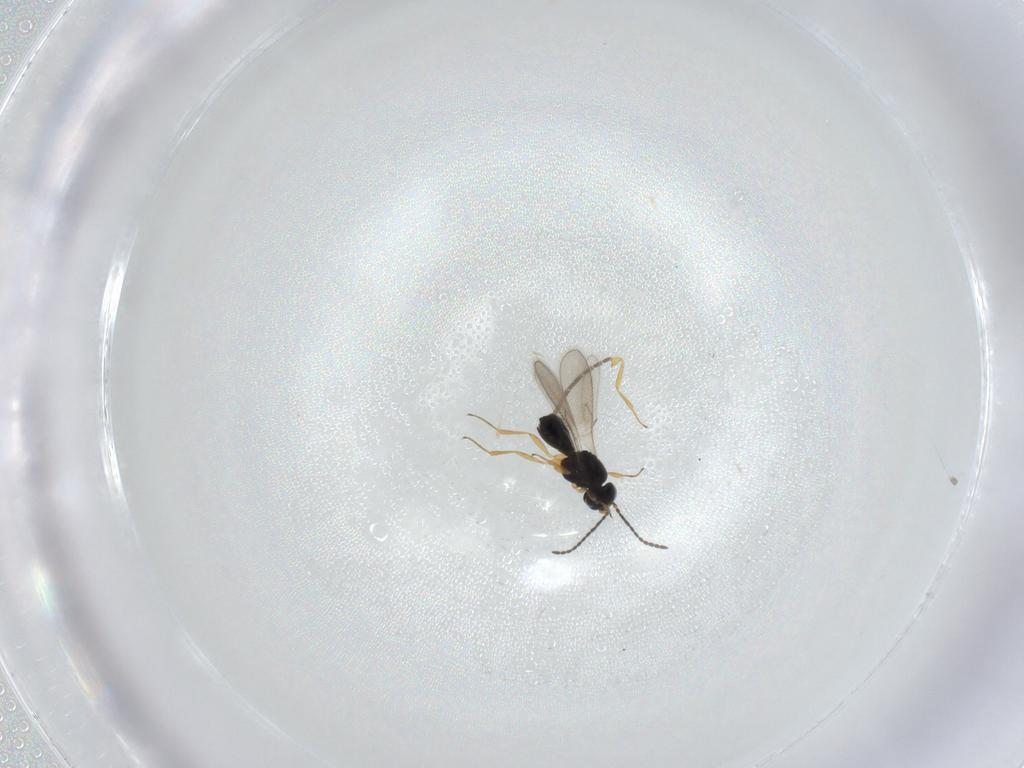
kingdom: Animalia
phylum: Arthropoda
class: Insecta
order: Hymenoptera
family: Scelionidae
